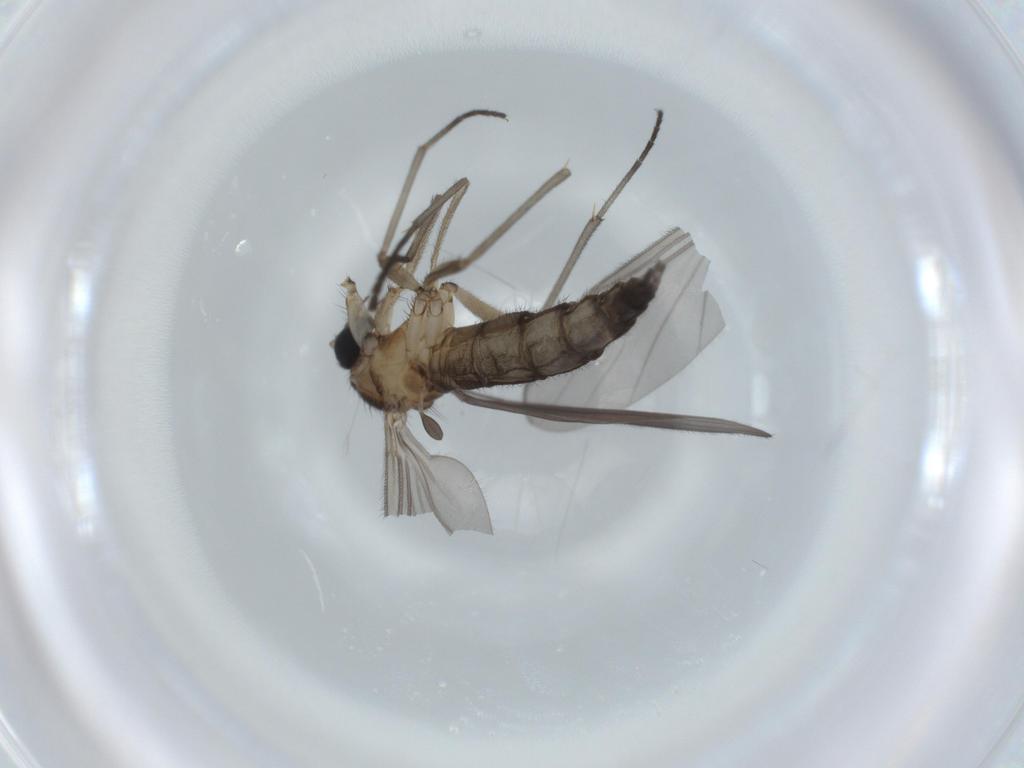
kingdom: Animalia
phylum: Arthropoda
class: Insecta
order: Diptera
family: Sciaridae
